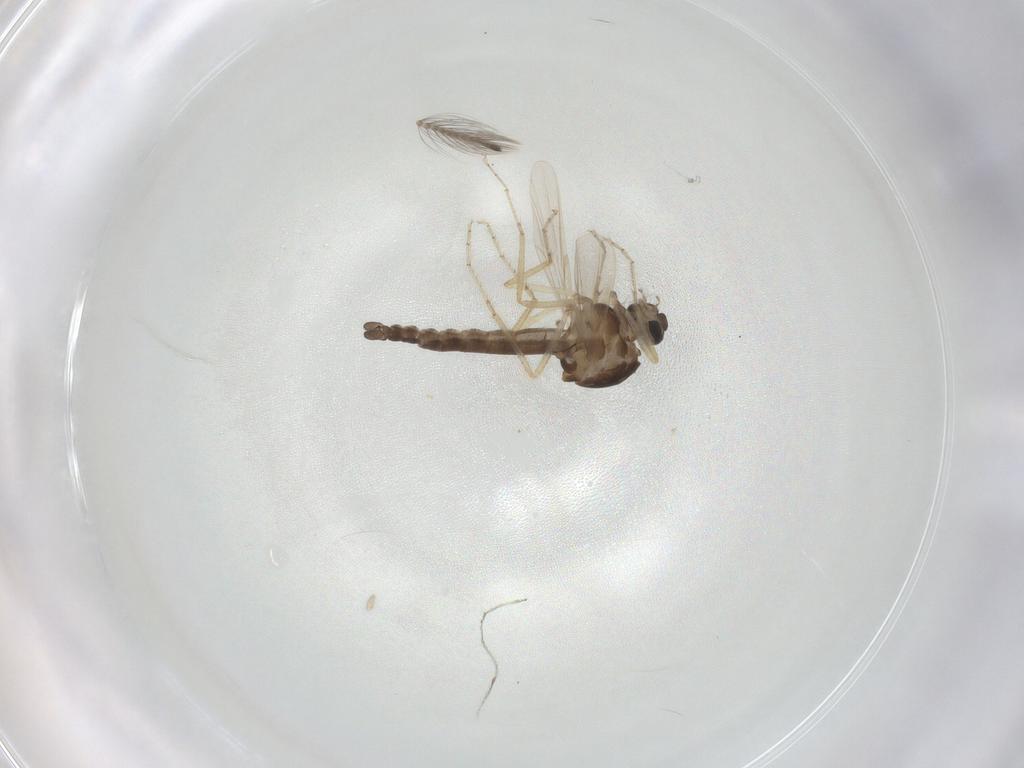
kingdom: Animalia
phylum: Arthropoda
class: Insecta
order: Diptera
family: Ceratopogonidae
